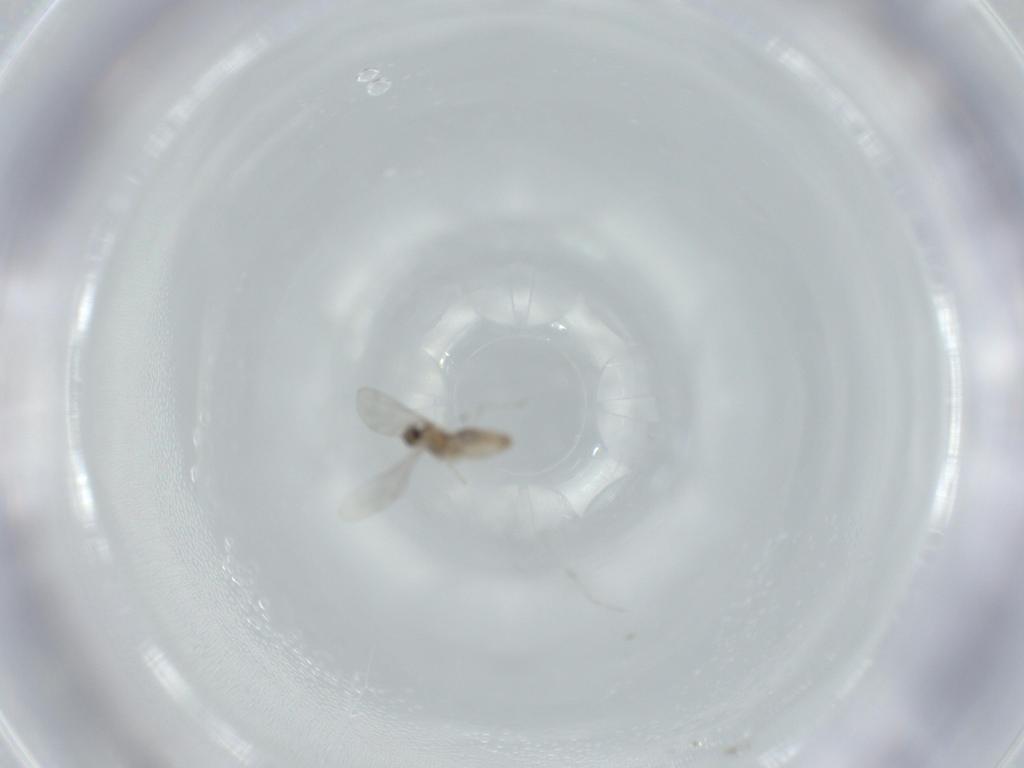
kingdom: Animalia
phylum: Arthropoda
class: Insecta
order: Diptera
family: Cecidomyiidae
